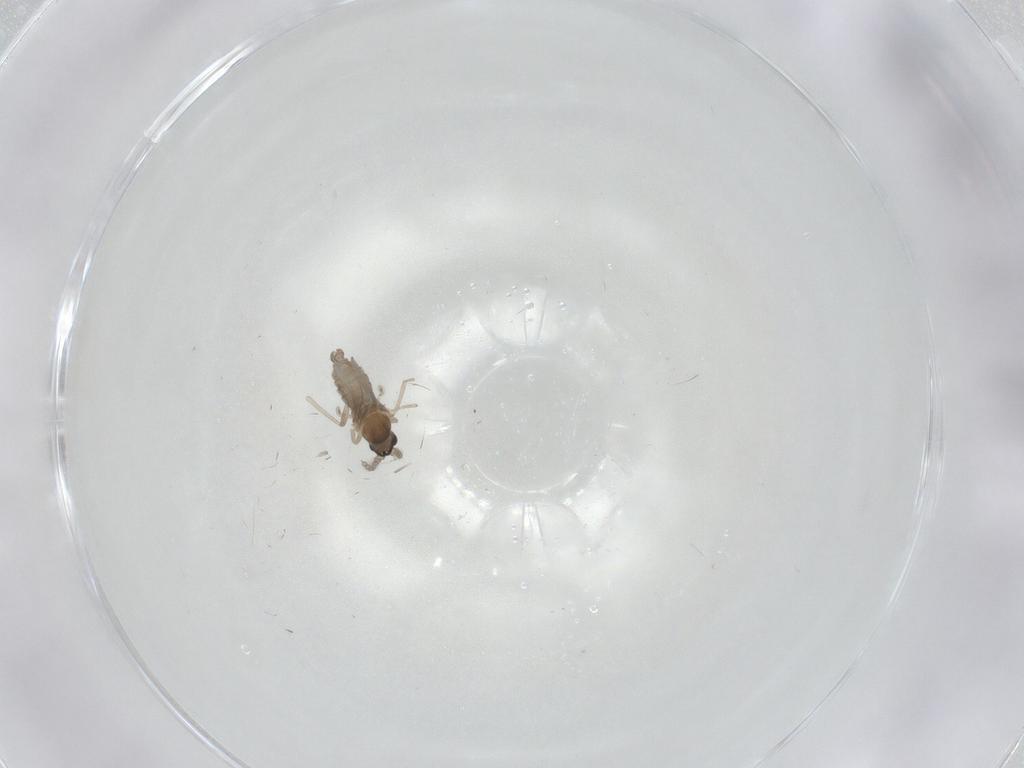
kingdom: Animalia
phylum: Arthropoda
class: Insecta
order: Diptera
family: Cecidomyiidae
